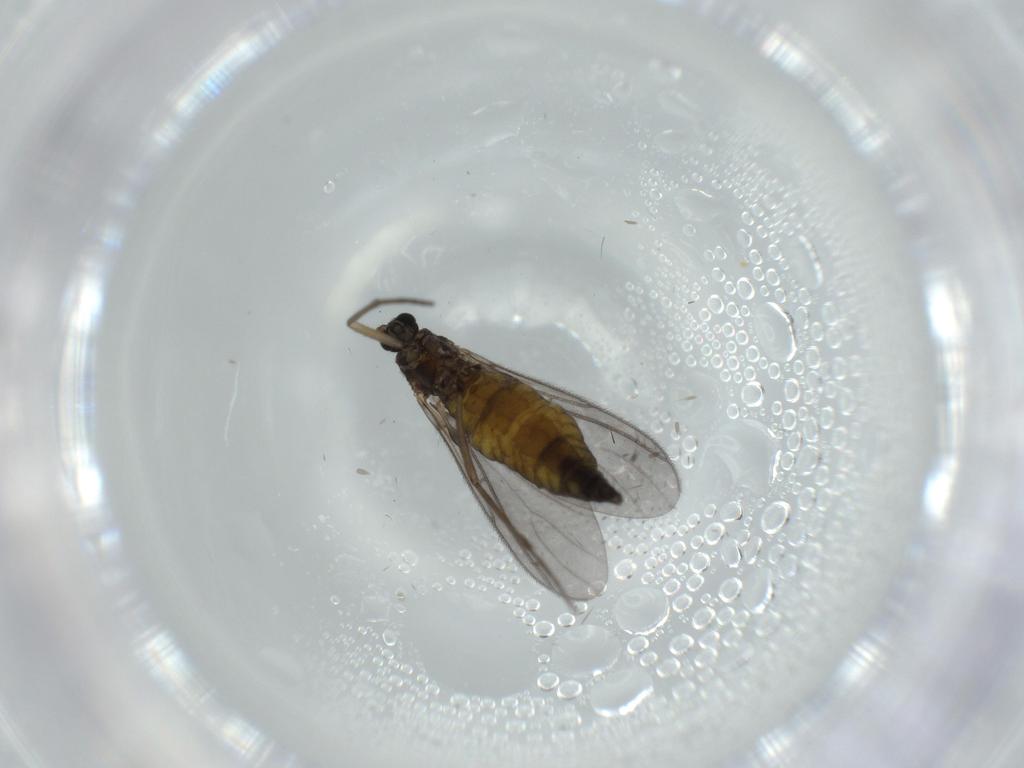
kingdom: Animalia
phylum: Arthropoda
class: Insecta
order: Diptera
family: Sciaridae
